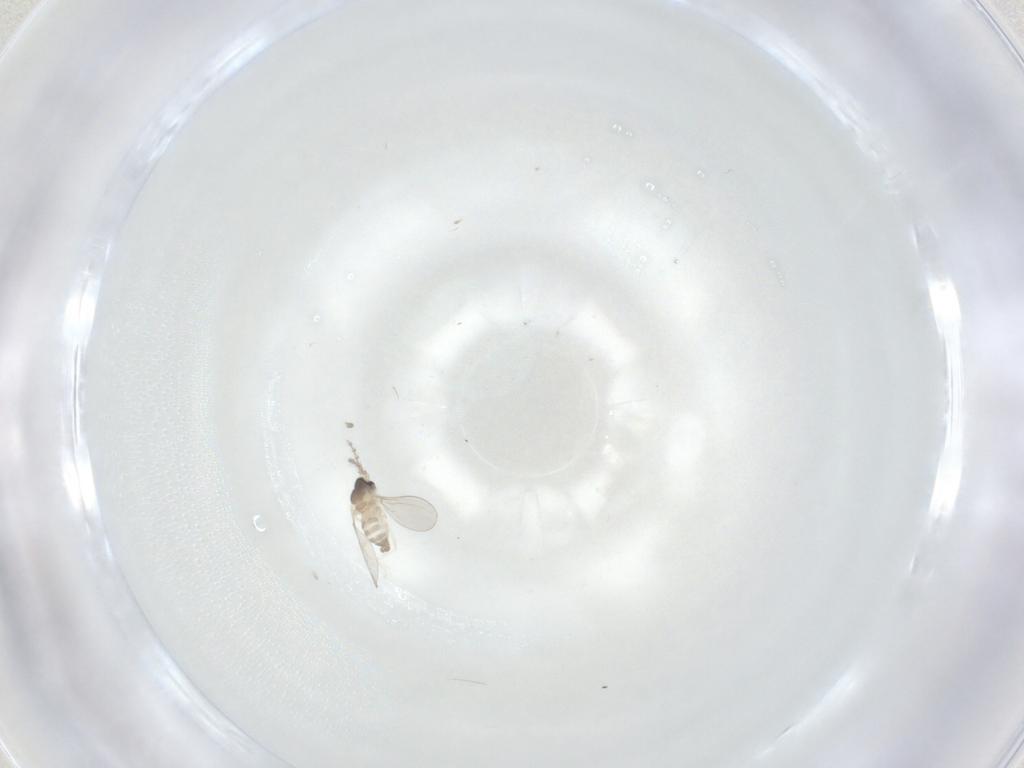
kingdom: Animalia
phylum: Arthropoda
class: Insecta
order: Diptera
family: Cecidomyiidae
